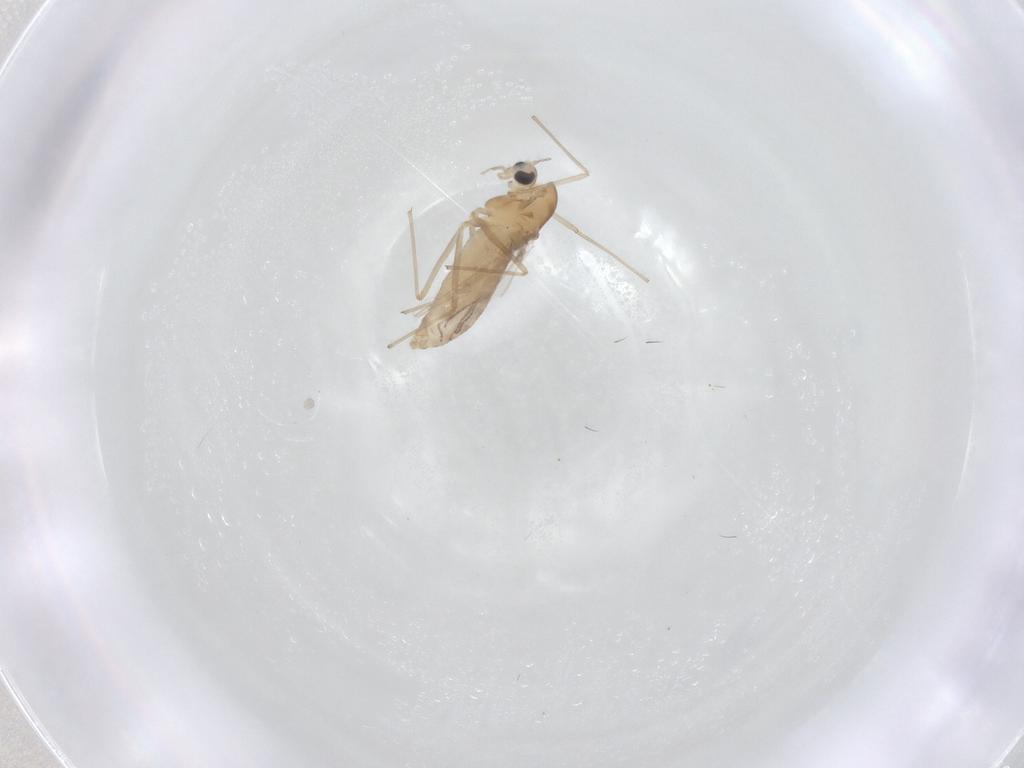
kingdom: Animalia
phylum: Arthropoda
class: Insecta
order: Diptera
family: Chironomidae
